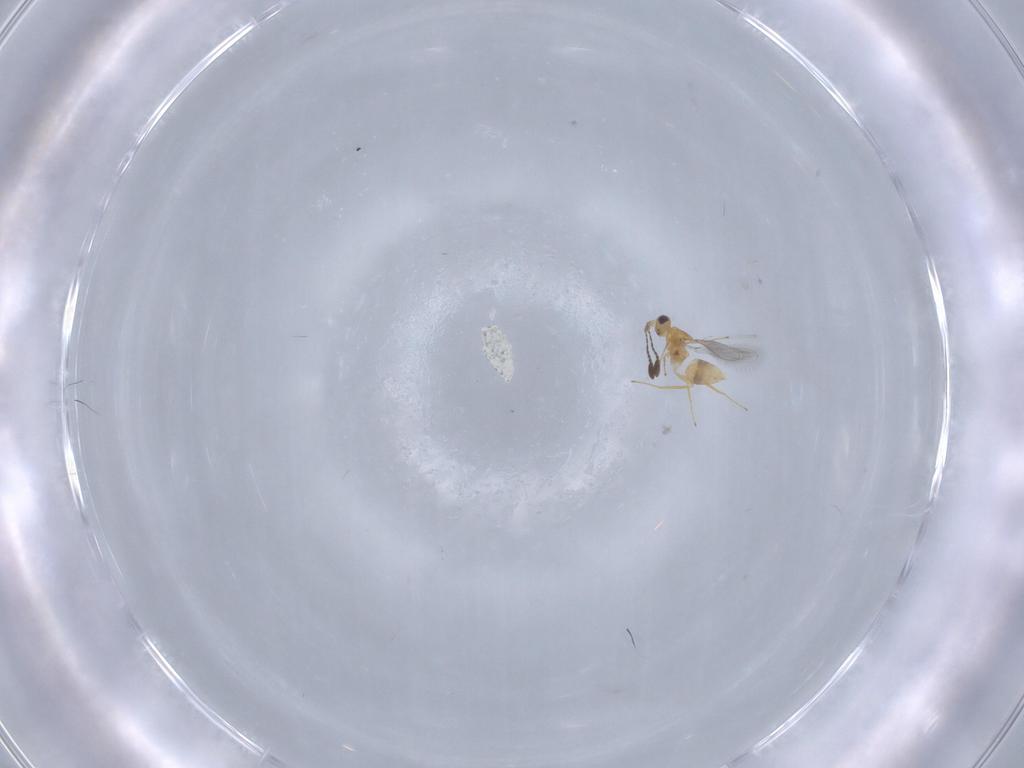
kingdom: Animalia
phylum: Arthropoda
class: Insecta
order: Hymenoptera
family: Mymaridae
